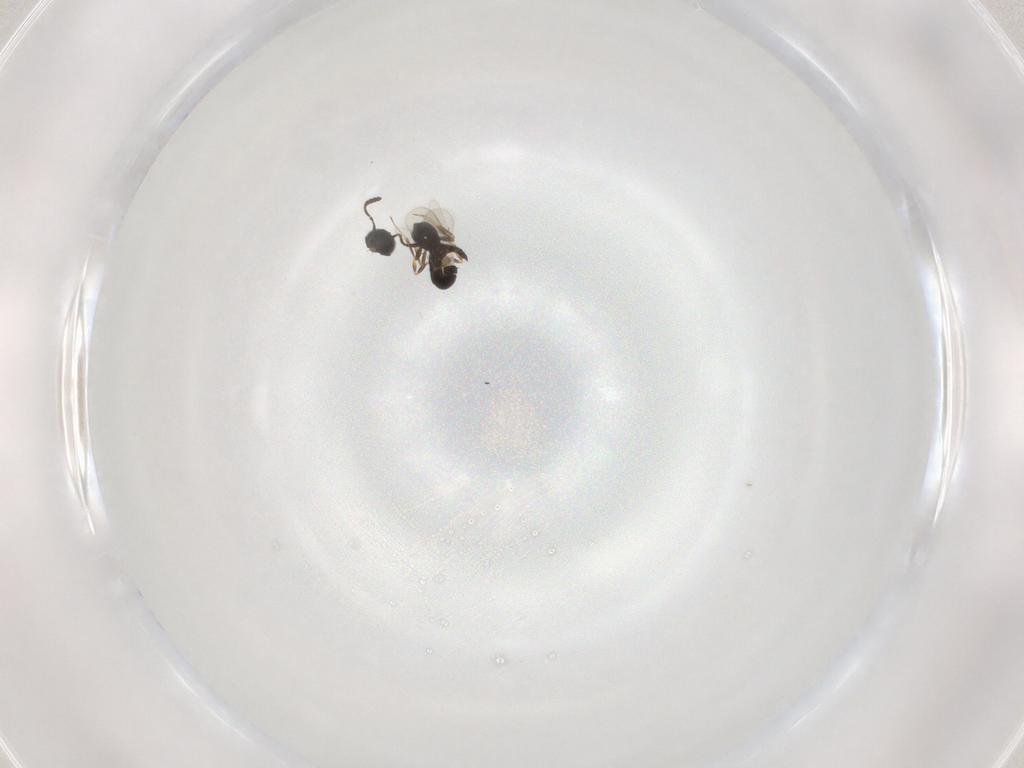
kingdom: Animalia
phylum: Arthropoda
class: Insecta
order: Hymenoptera
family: Scelionidae
